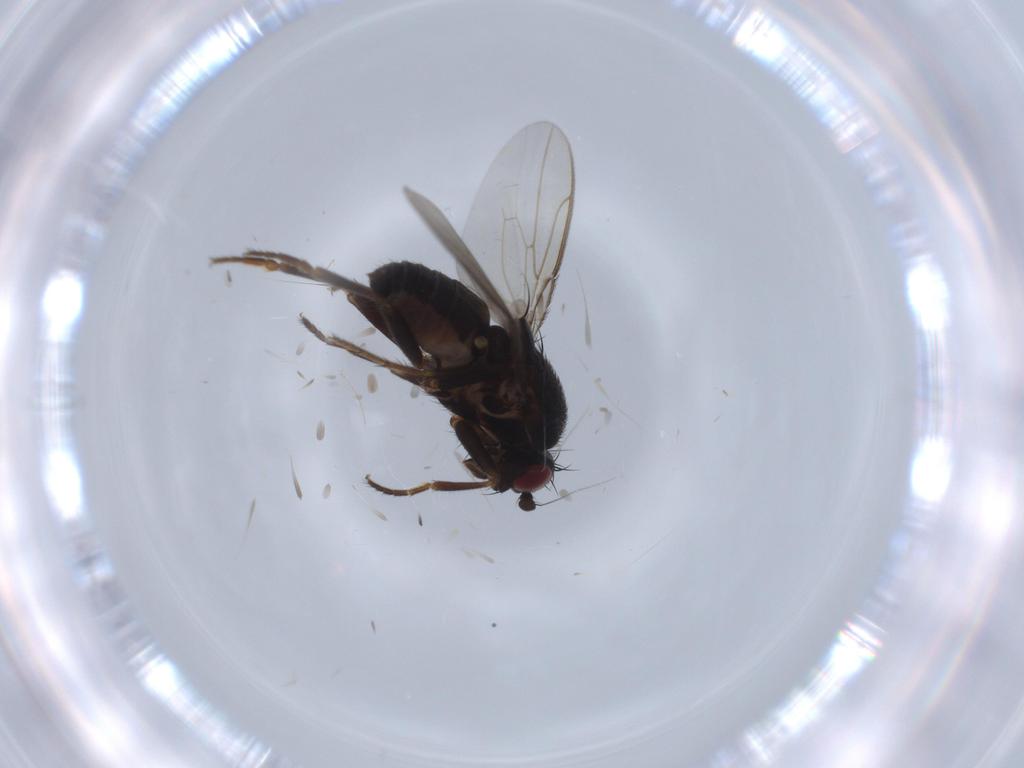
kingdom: Animalia
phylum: Arthropoda
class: Insecta
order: Diptera
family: Sphaeroceridae
